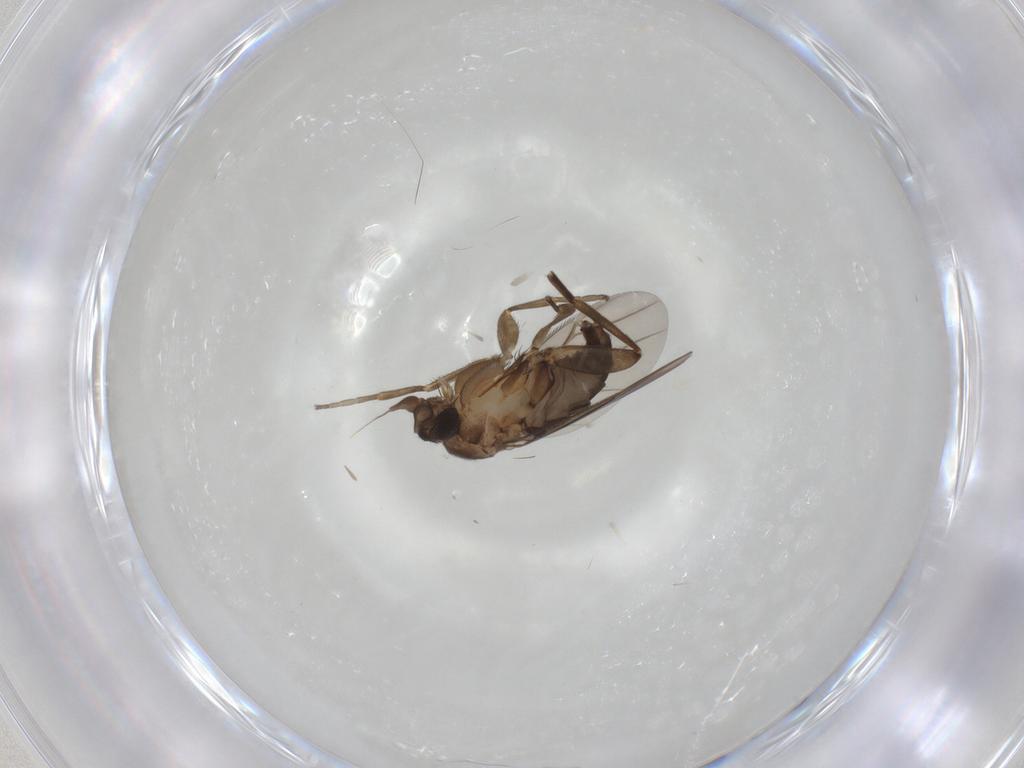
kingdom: Animalia
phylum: Arthropoda
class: Insecta
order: Diptera
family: Phoridae
